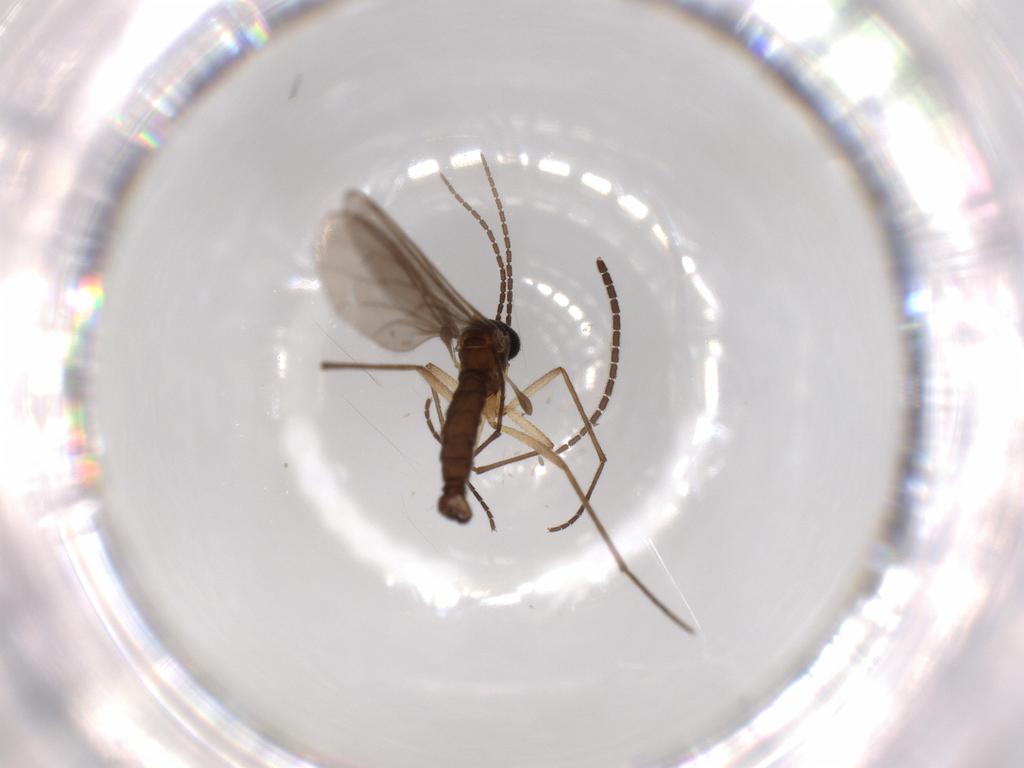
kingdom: Animalia
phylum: Arthropoda
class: Insecta
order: Diptera
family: Sciaridae
